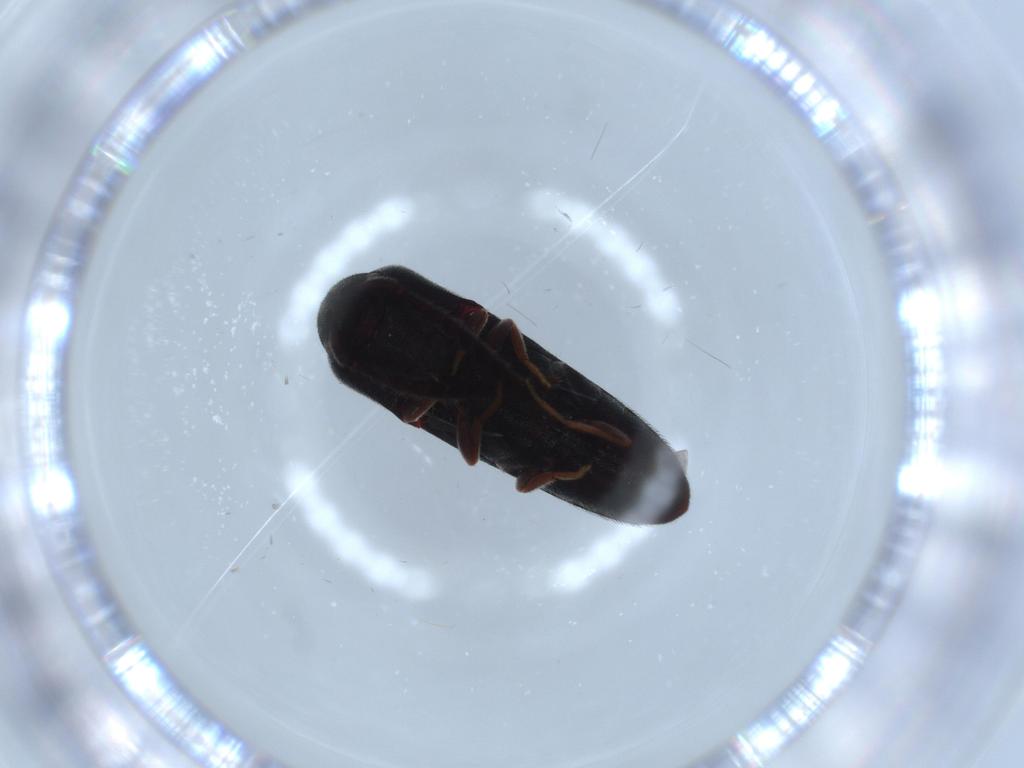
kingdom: Animalia
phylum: Arthropoda
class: Insecta
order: Coleoptera
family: Eucnemidae
